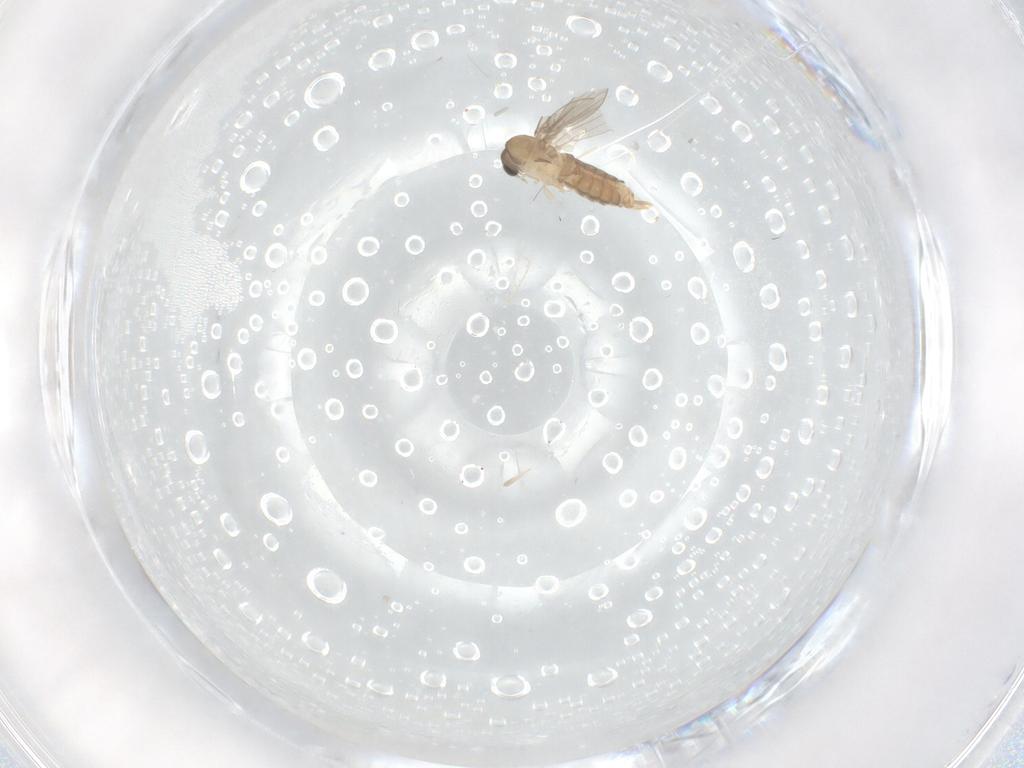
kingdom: Animalia
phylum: Arthropoda
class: Insecta
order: Diptera
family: Psychodidae
